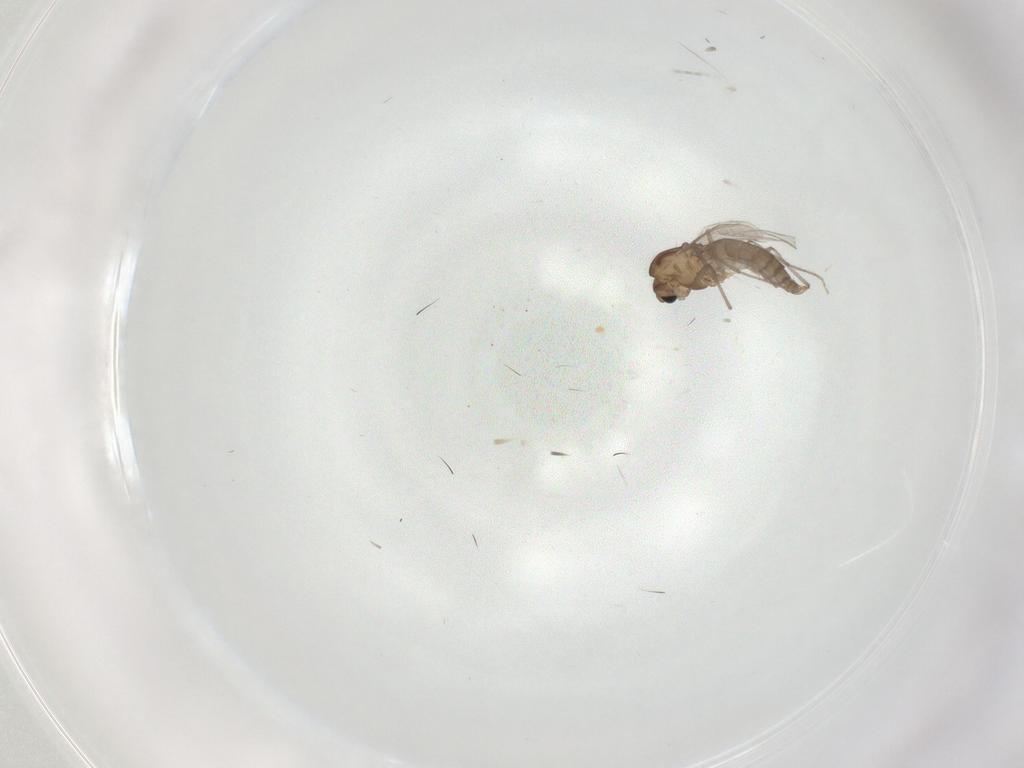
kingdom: Animalia
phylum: Arthropoda
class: Insecta
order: Diptera
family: Chironomidae
